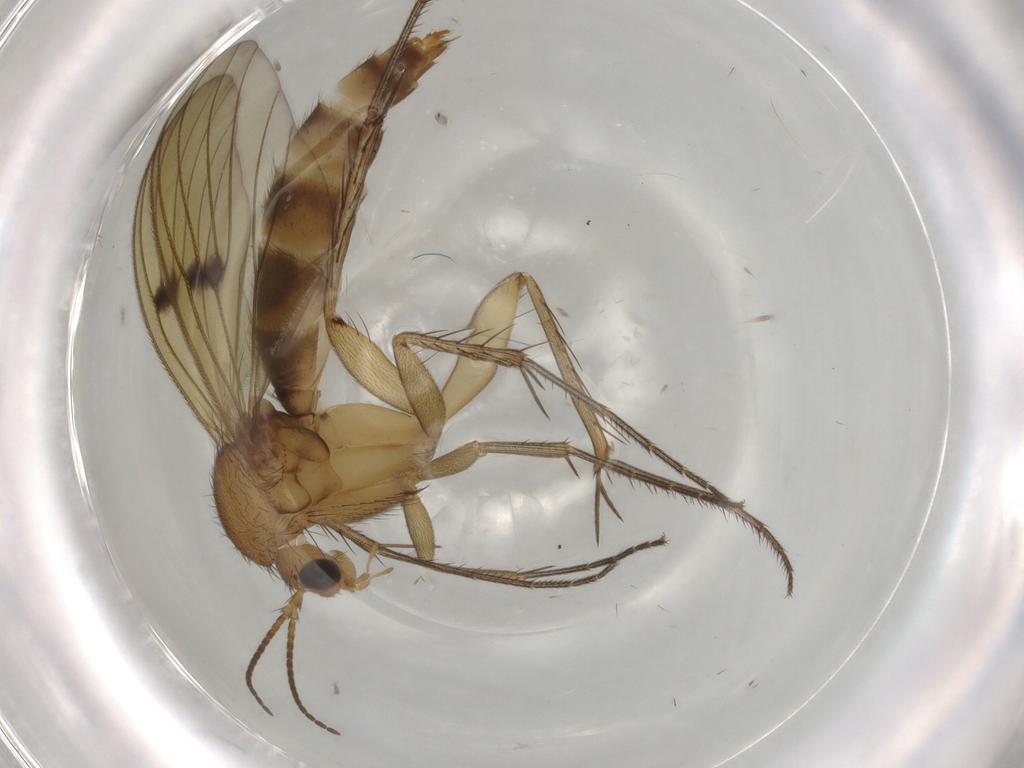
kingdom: Animalia
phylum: Arthropoda
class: Insecta
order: Diptera
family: Mycetophilidae
